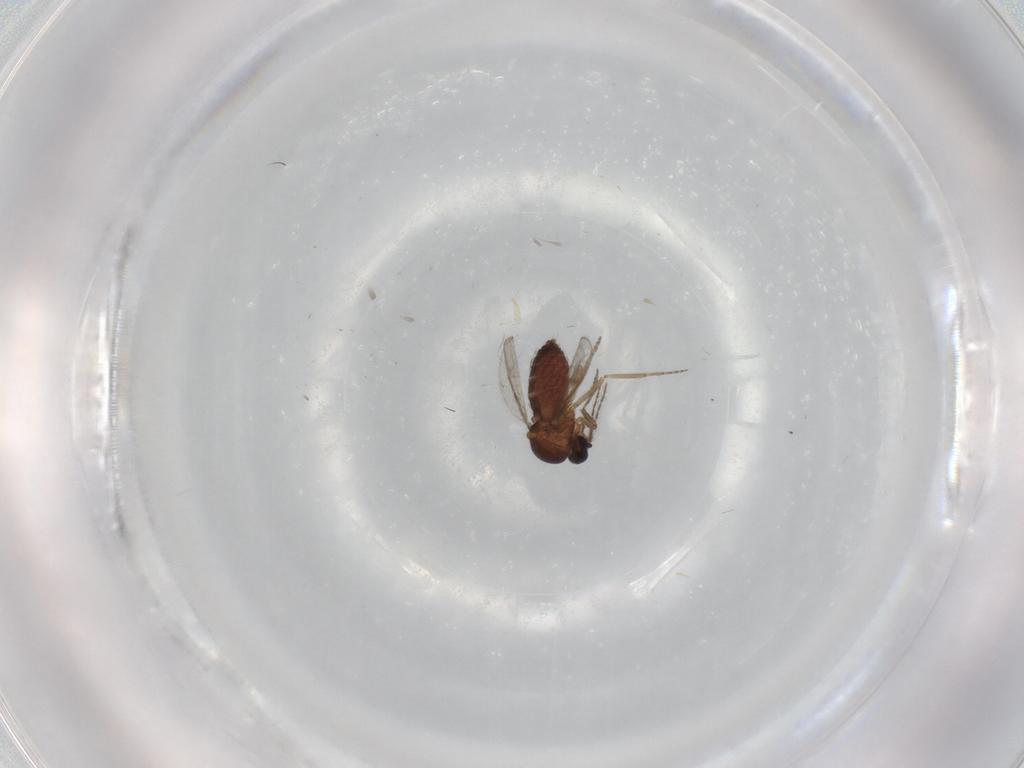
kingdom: Animalia
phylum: Arthropoda
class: Insecta
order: Diptera
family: Ceratopogonidae
